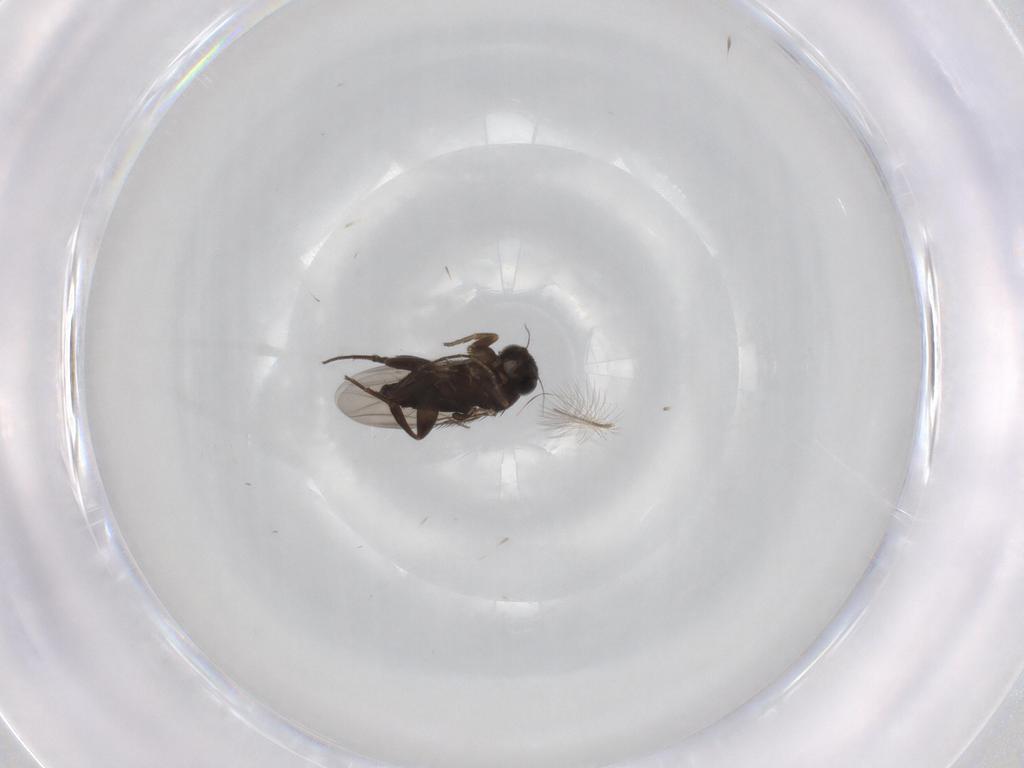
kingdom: Animalia
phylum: Arthropoda
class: Insecta
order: Diptera
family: Phoridae
